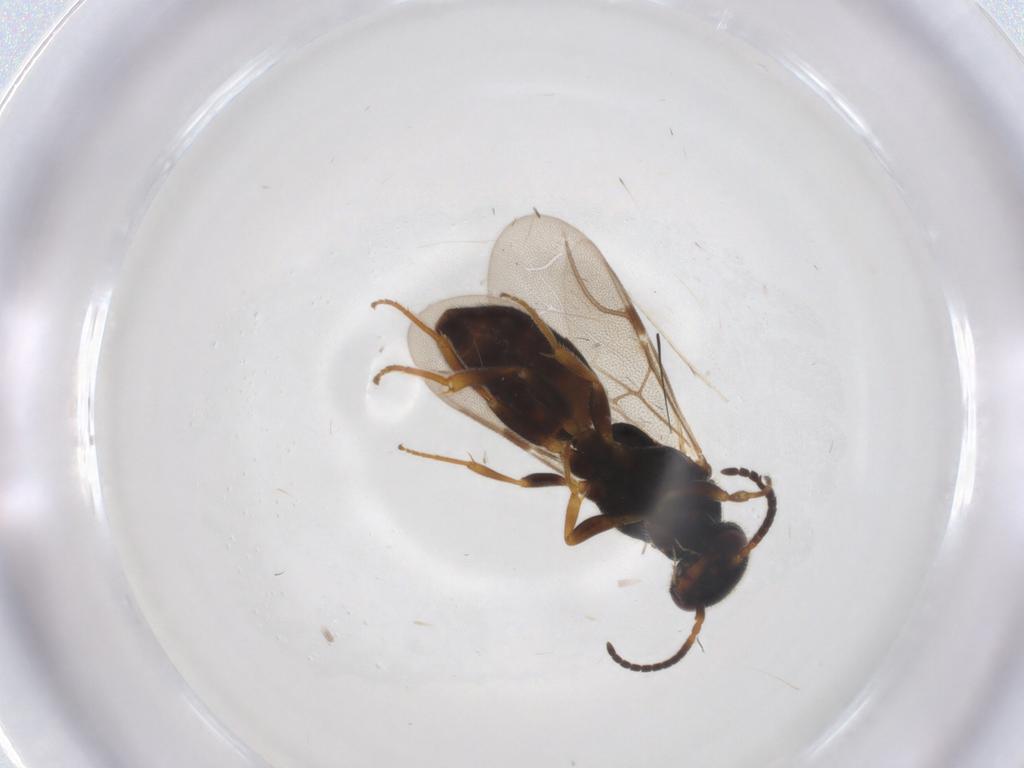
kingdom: Animalia
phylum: Arthropoda
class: Insecta
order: Hymenoptera
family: Bethylidae
